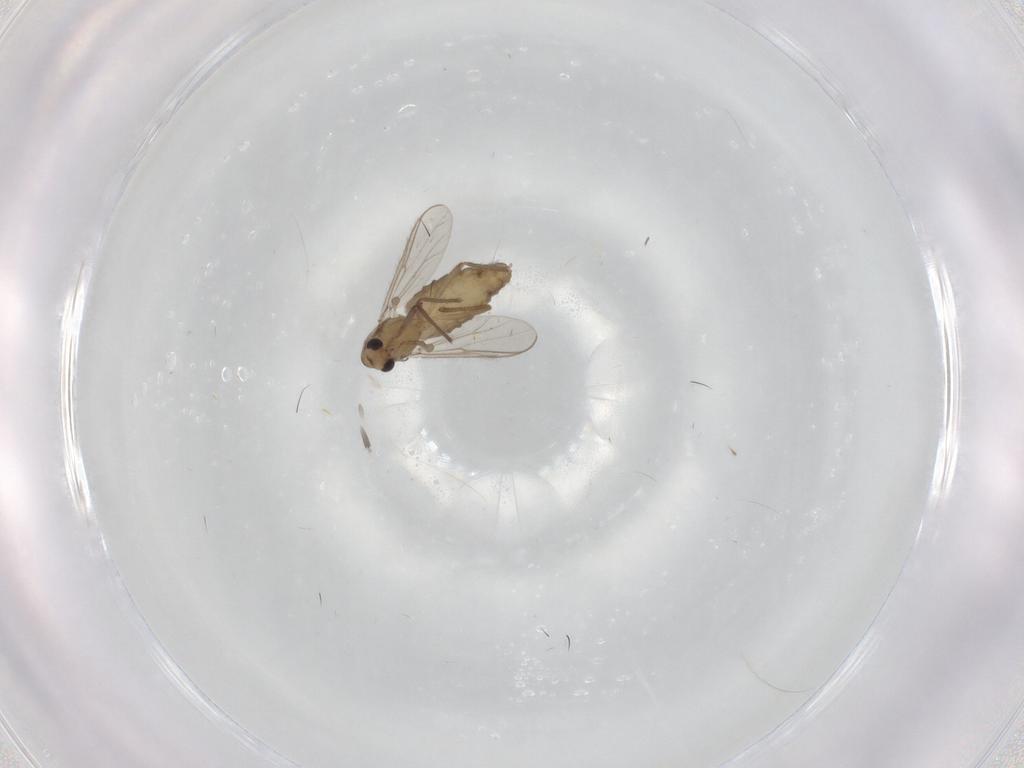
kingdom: Animalia
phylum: Arthropoda
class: Insecta
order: Diptera
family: Chironomidae
